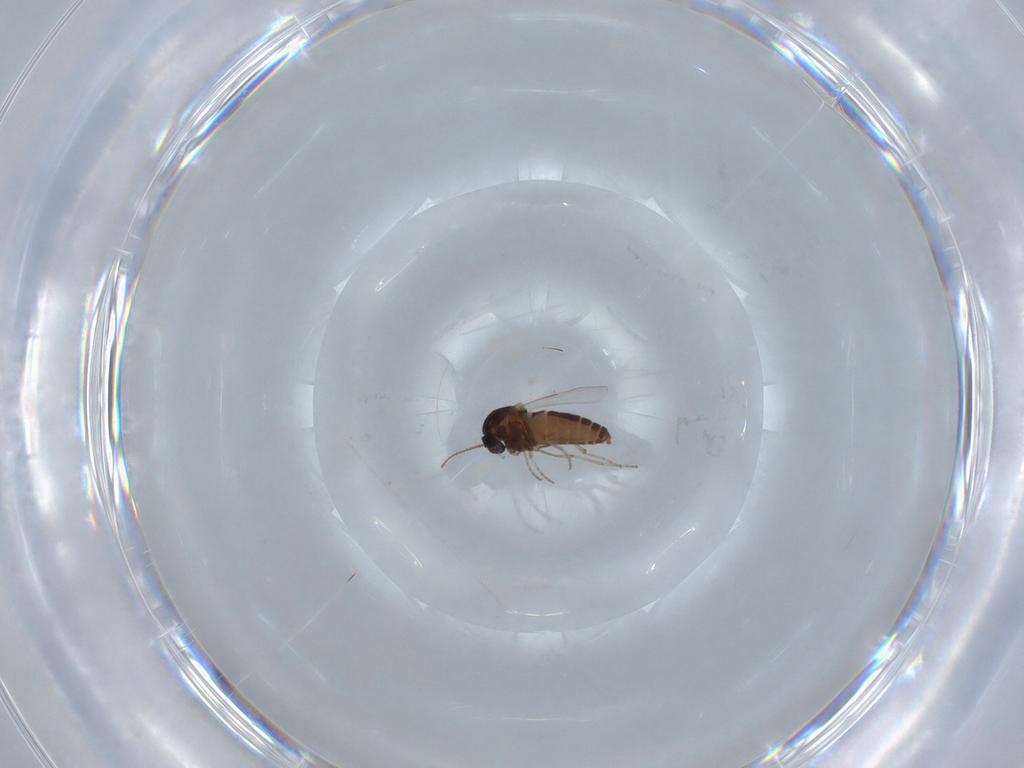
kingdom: Animalia
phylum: Arthropoda
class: Insecta
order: Diptera
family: Ceratopogonidae
